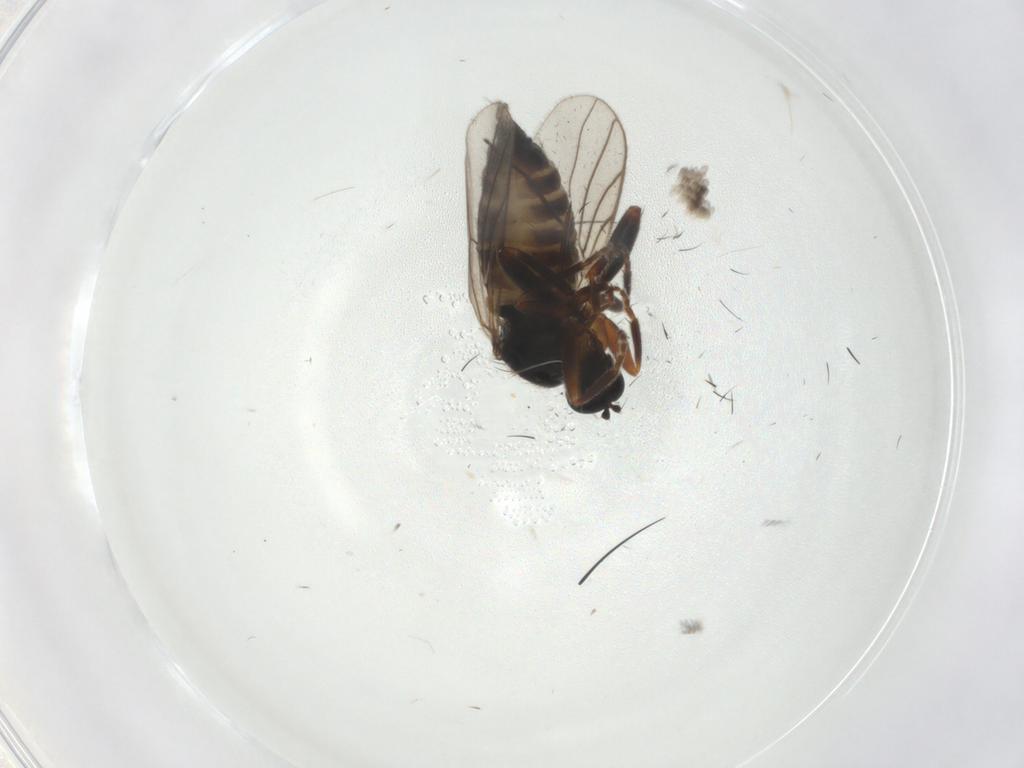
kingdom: Animalia
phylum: Arthropoda
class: Insecta
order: Diptera
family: Dolichopodidae
